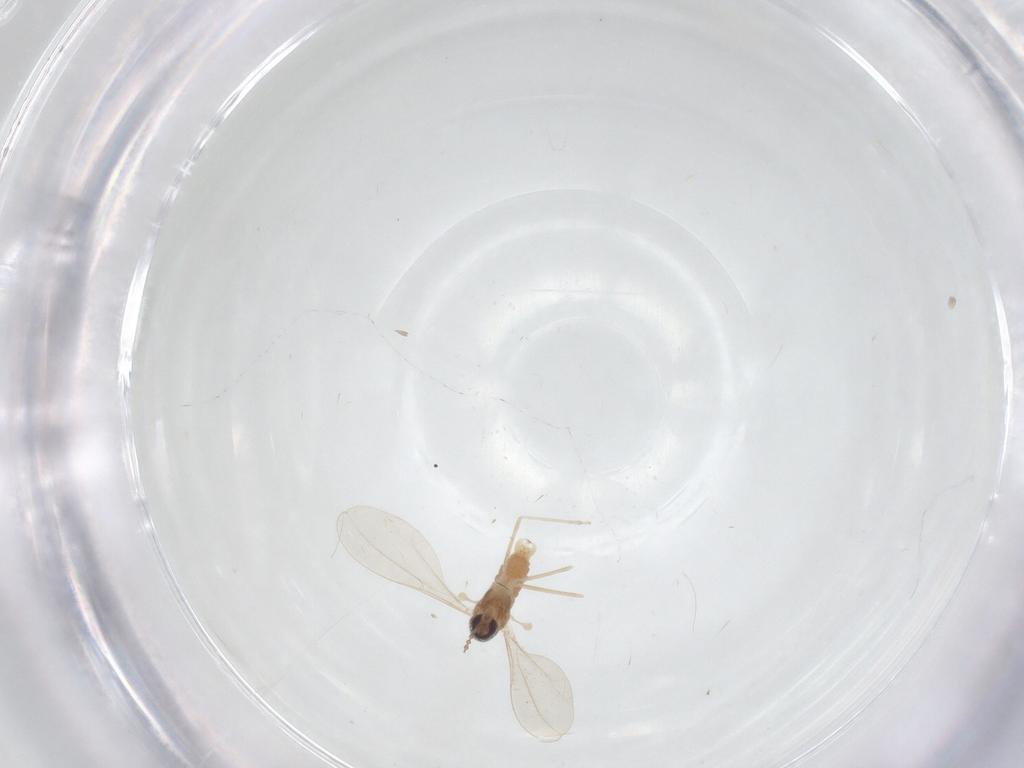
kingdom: Animalia
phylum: Arthropoda
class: Insecta
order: Diptera
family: Cecidomyiidae
